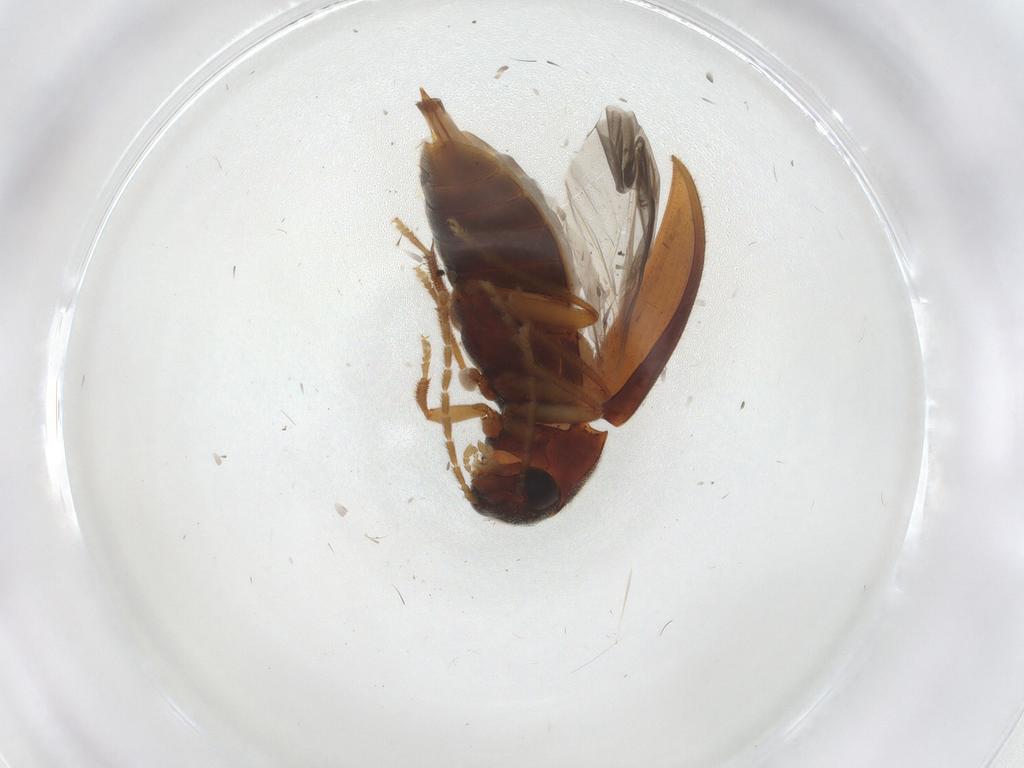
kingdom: Animalia
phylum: Arthropoda
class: Insecta
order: Coleoptera
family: Ptilodactylidae
